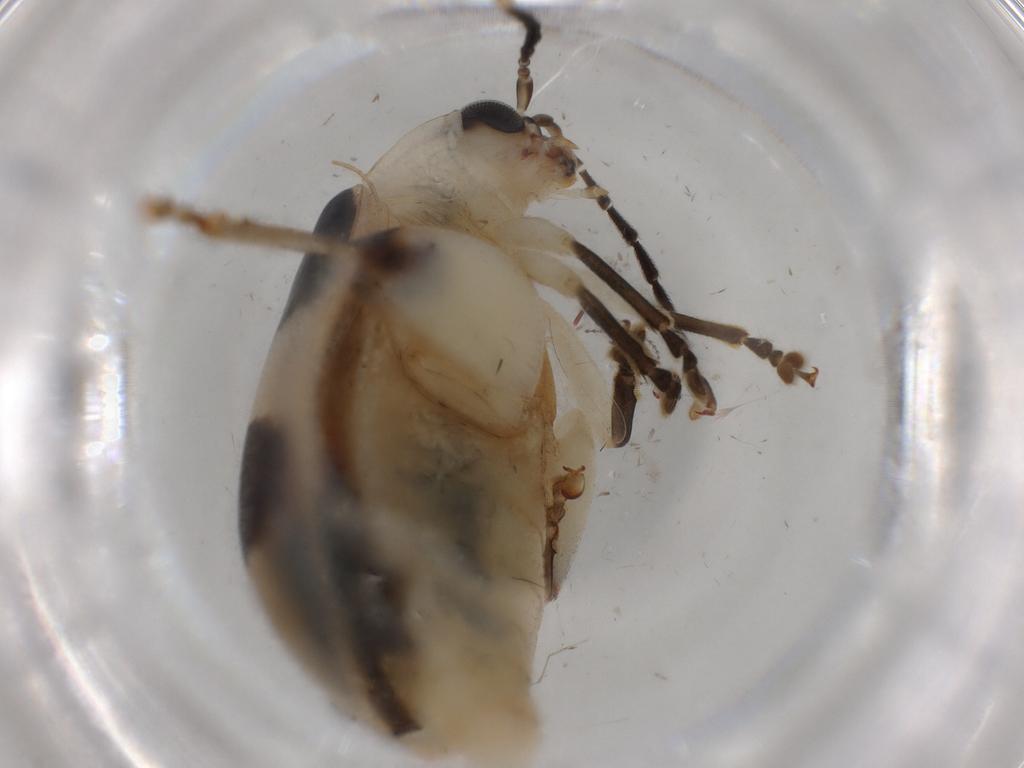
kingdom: Animalia
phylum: Arthropoda
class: Insecta
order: Coleoptera
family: Chrysomelidae
